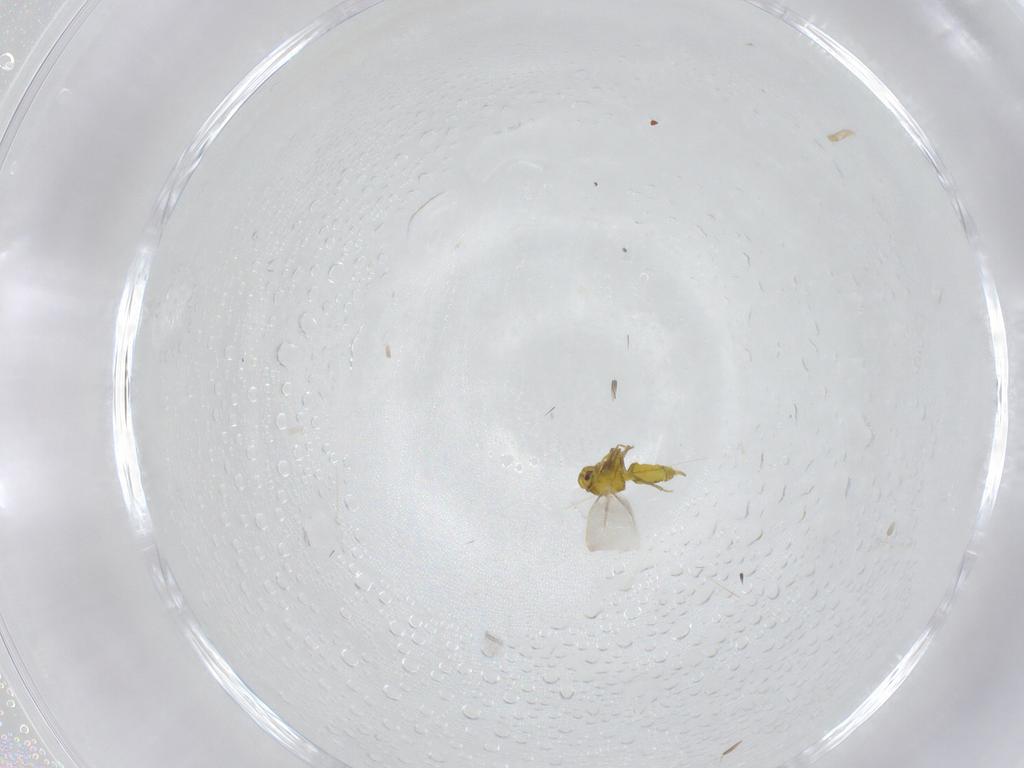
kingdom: Animalia
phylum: Arthropoda
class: Insecta
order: Hemiptera
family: Aleyrodidae
